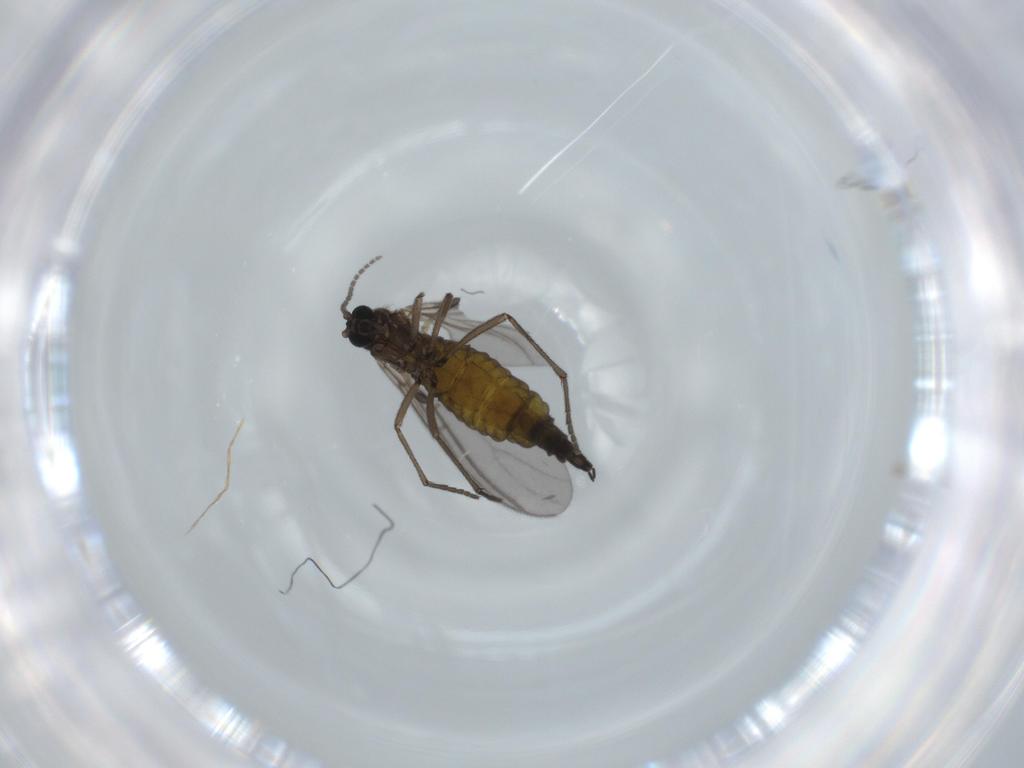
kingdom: Animalia
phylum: Arthropoda
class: Insecta
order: Diptera
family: Sciaridae
